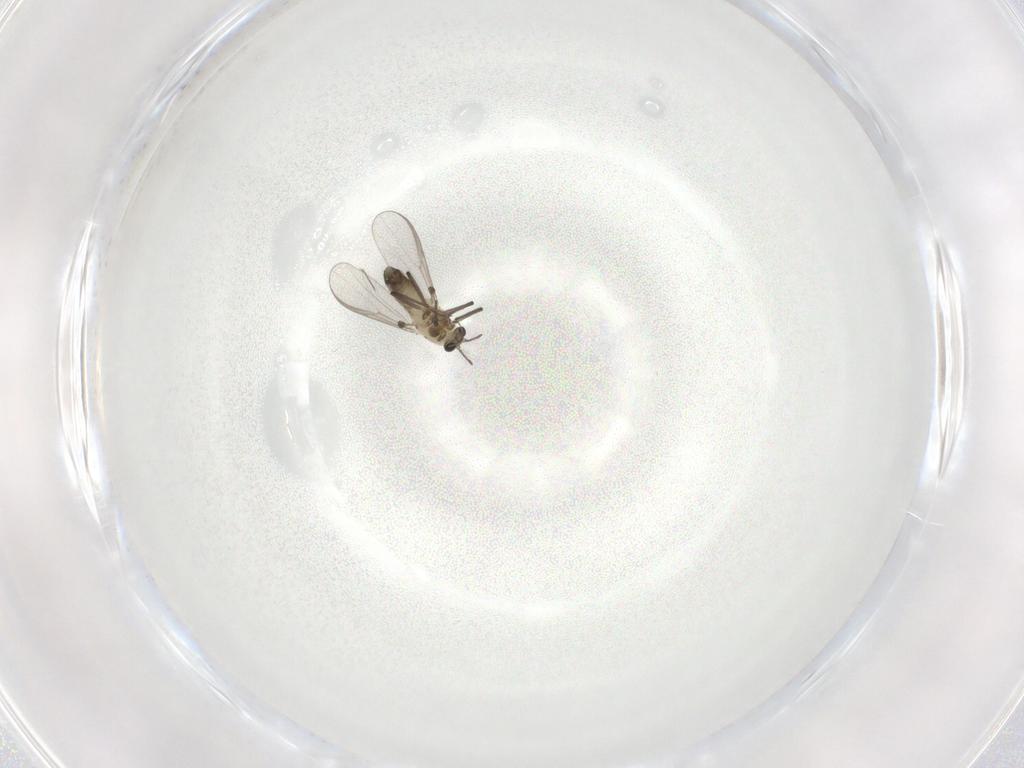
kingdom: Animalia
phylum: Arthropoda
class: Insecta
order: Diptera
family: Chironomidae
